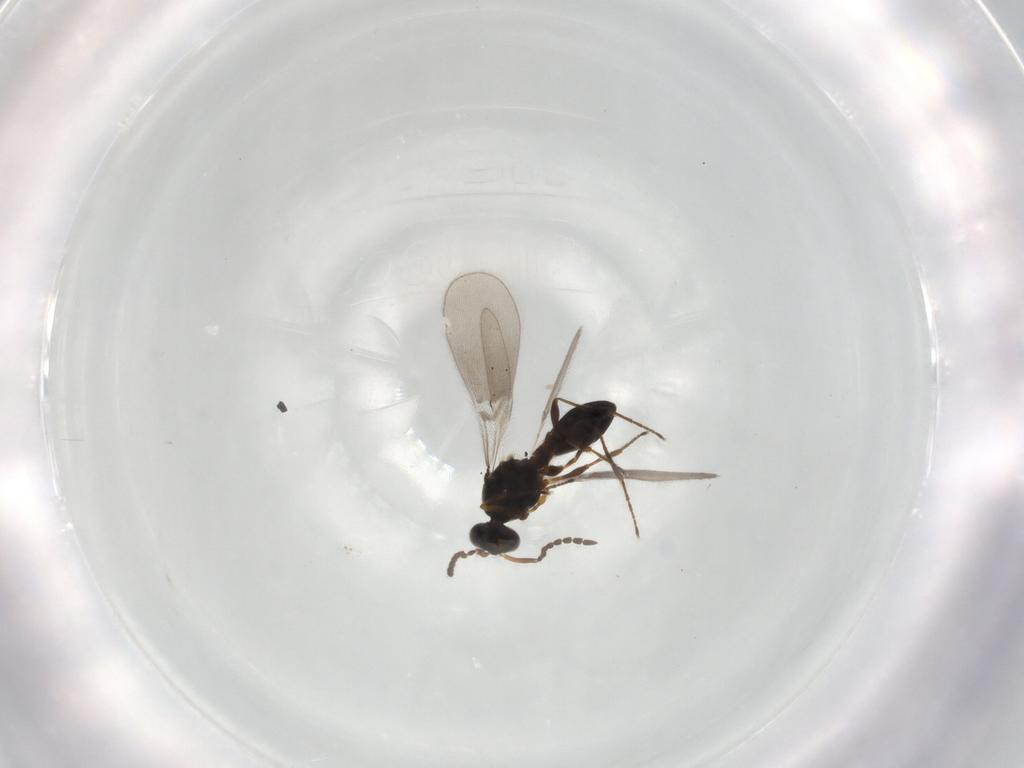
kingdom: Animalia
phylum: Arthropoda
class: Insecta
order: Hymenoptera
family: Platygastridae
